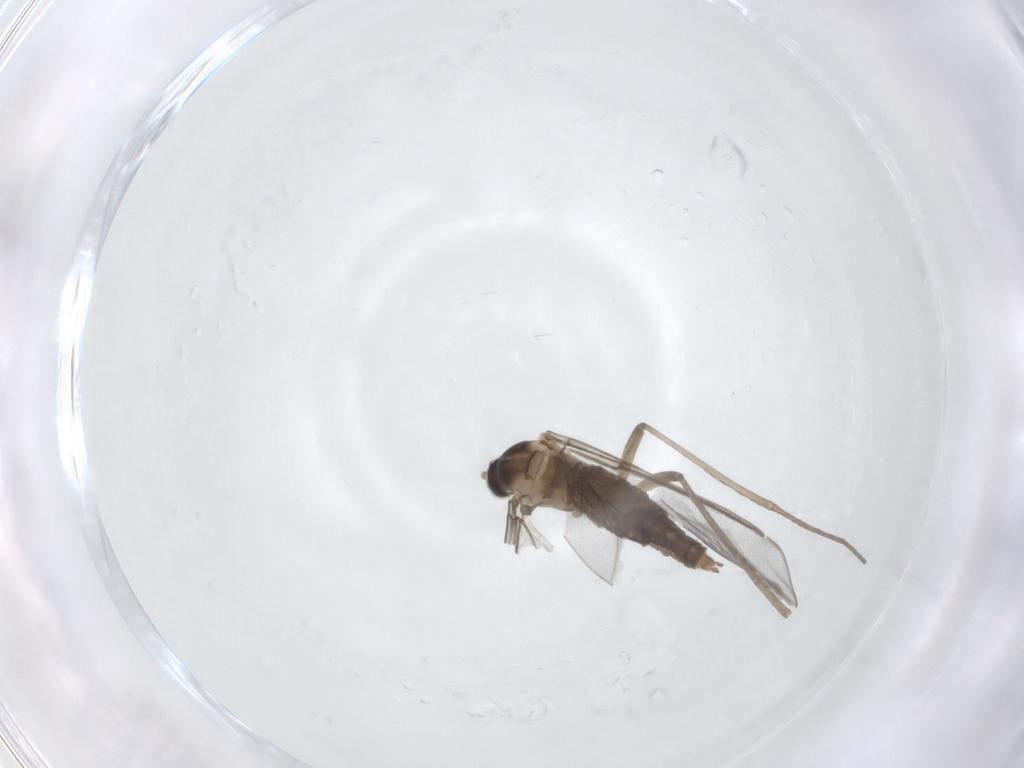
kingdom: Animalia
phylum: Arthropoda
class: Insecta
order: Diptera
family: Cecidomyiidae
